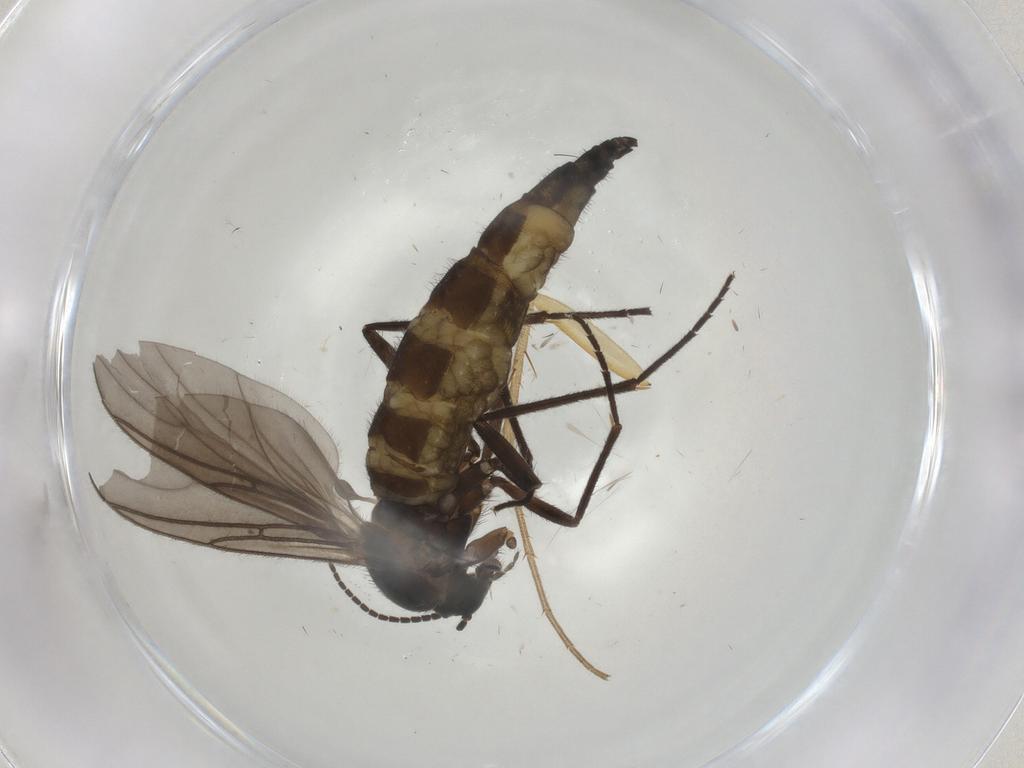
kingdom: Animalia
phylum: Arthropoda
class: Insecta
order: Diptera
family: Sciaridae
